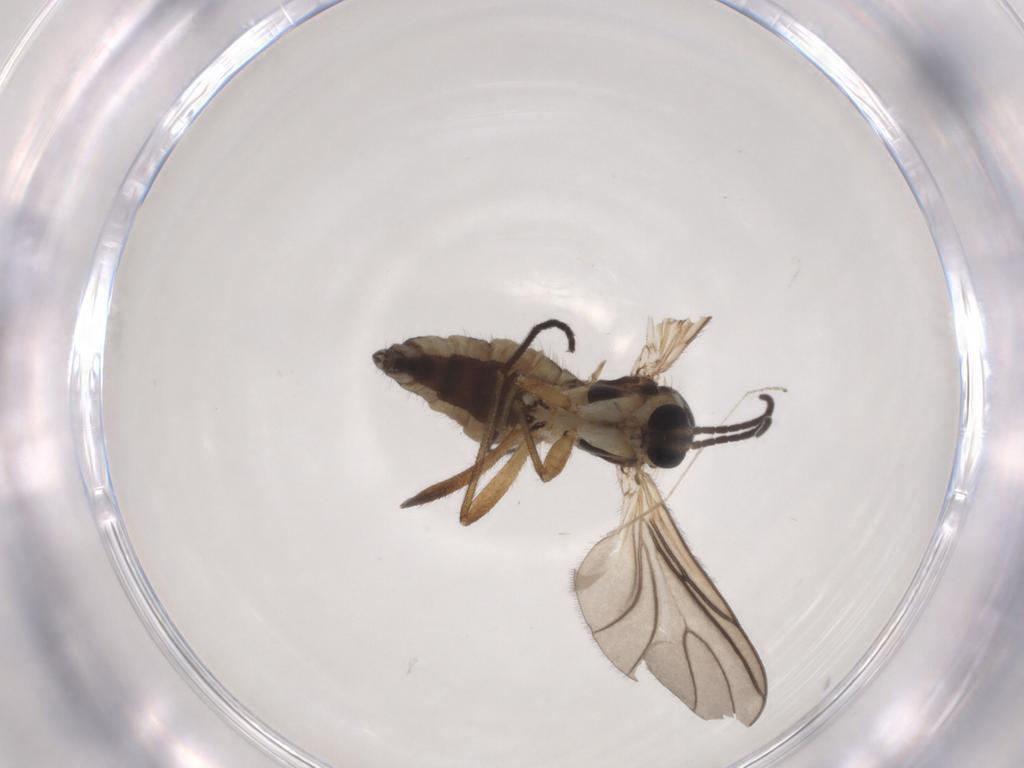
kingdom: Animalia
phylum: Arthropoda
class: Insecta
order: Diptera
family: Sciaridae
